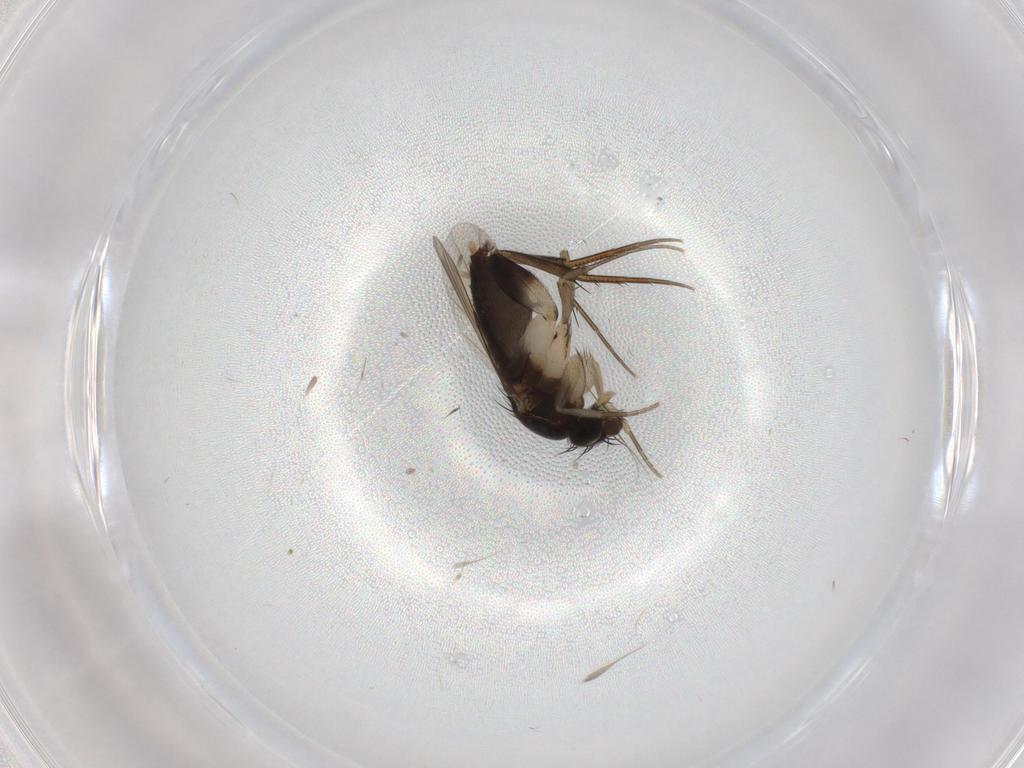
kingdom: Animalia
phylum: Arthropoda
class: Insecta
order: Diptera
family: Phoridae
